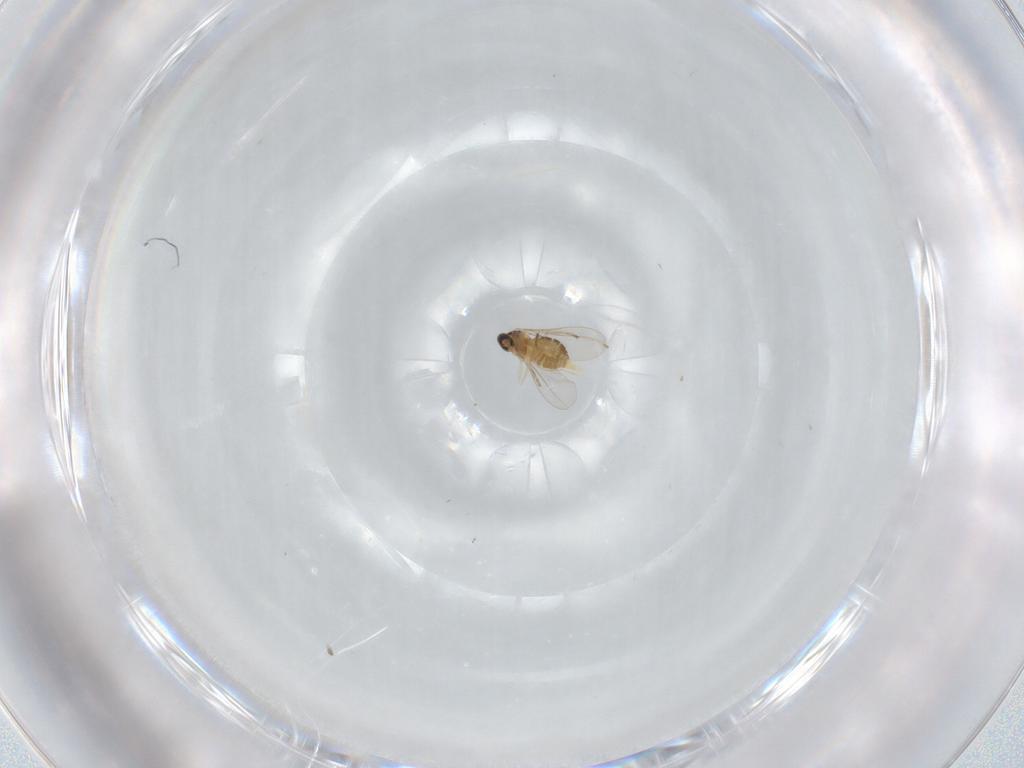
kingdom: Animalia
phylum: Arthropoda
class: Insecta
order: Diptera
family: Cecidomyiidae
